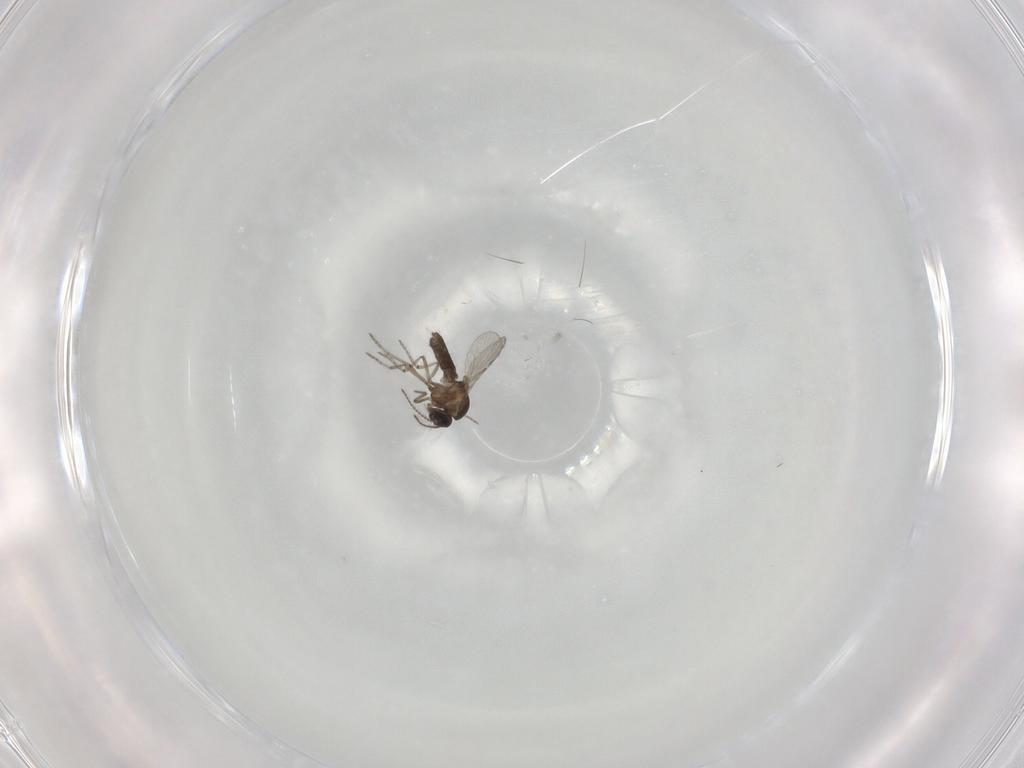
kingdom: Animalia
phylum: Arthropoda
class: Insecta
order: Diptera
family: Ceratopogonidae
